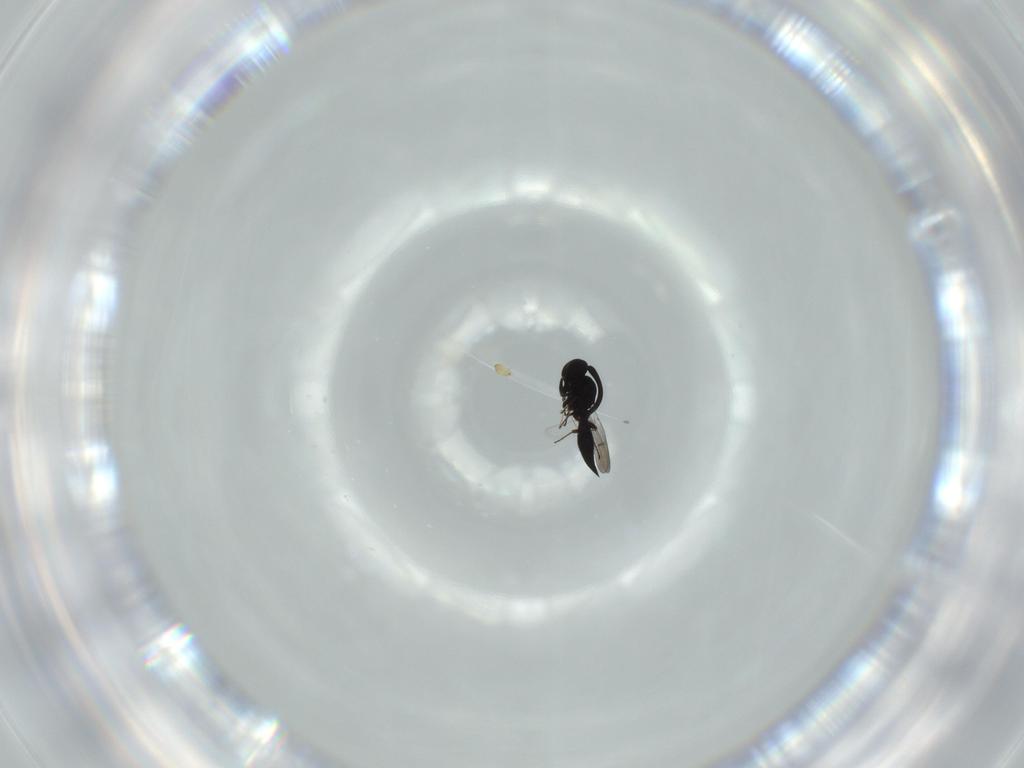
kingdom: Animalia
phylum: Arthropoda
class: Insecta
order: Hymenoptera
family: Platygastridae
